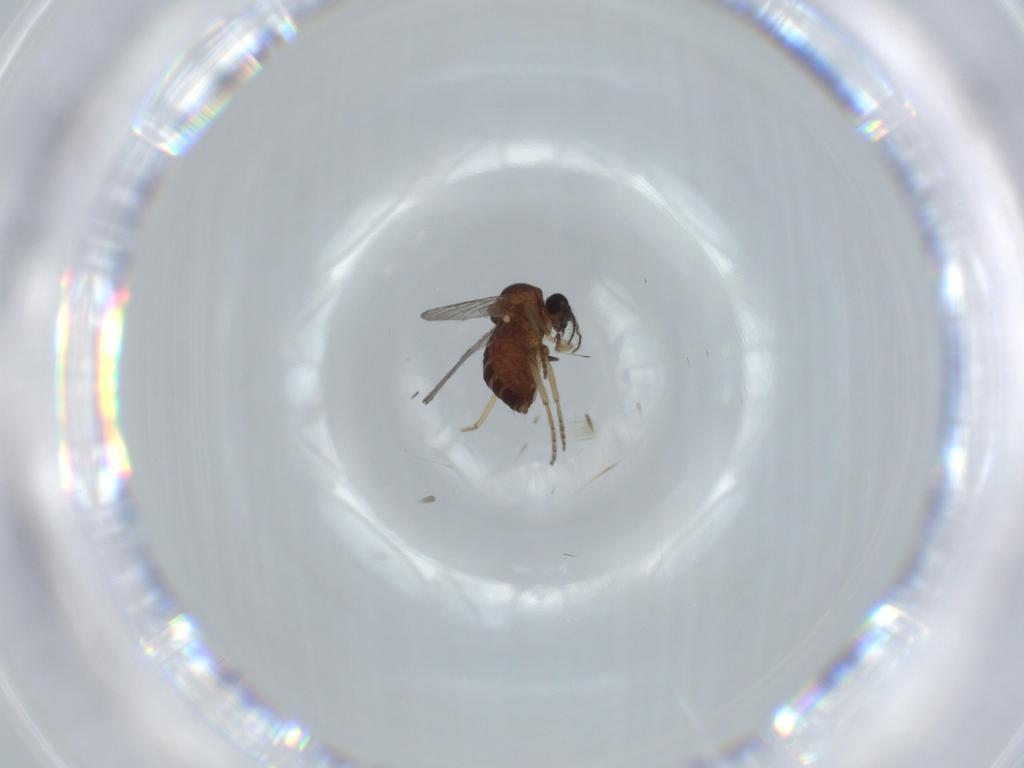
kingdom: Animalia
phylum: Arthropoda
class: Insecta
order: Diptera
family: Ceratopogonidae
